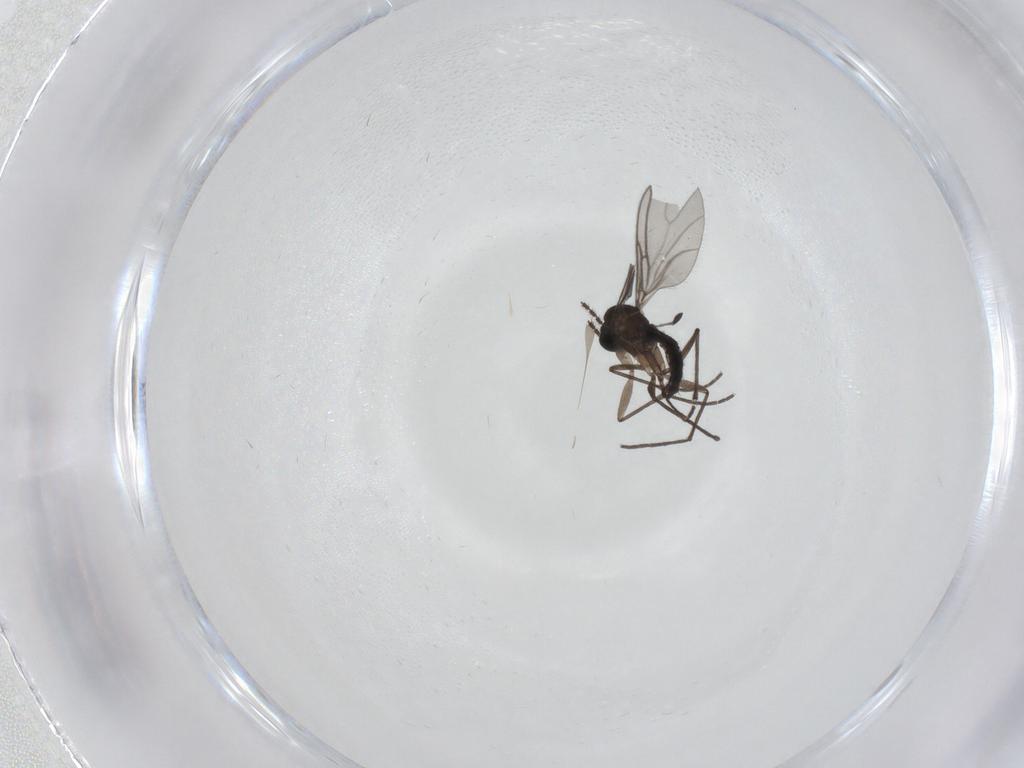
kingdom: Animalia
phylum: Arthropoda
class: Insecta
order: Diptera
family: Sciaridae
